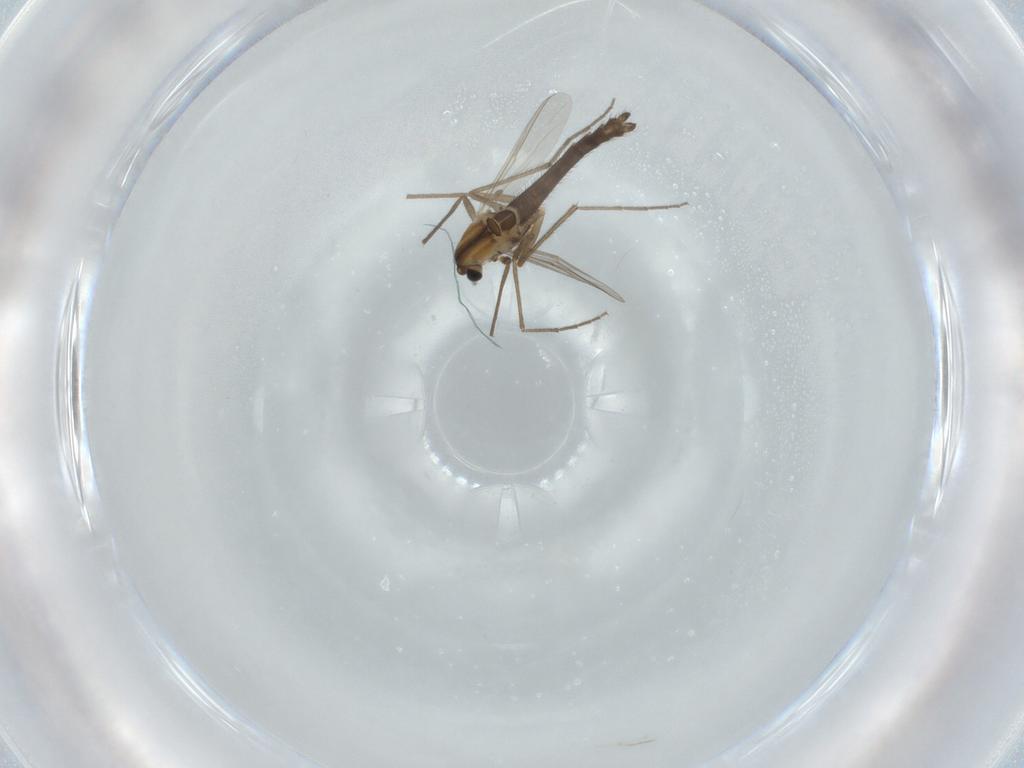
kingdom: Animalia
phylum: Arthropoda
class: Insecta
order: Diptera
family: Chironomidae
